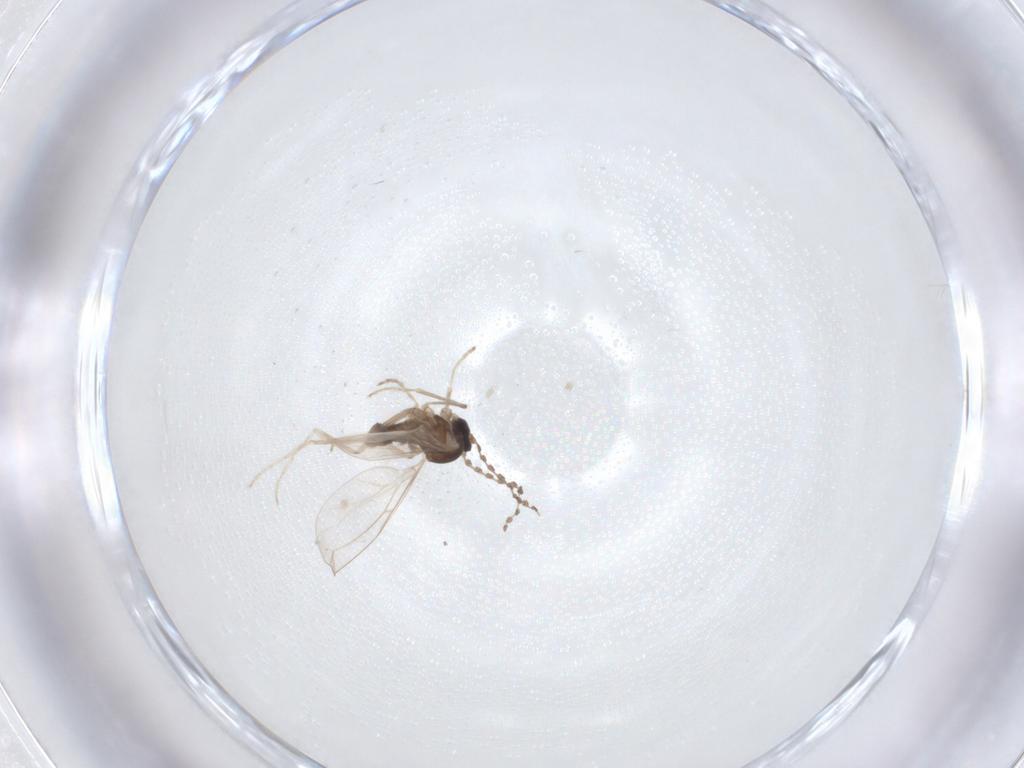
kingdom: Animalia
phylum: Arthropoda
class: Insecta
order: Diptera
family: Cecidomyiidae
